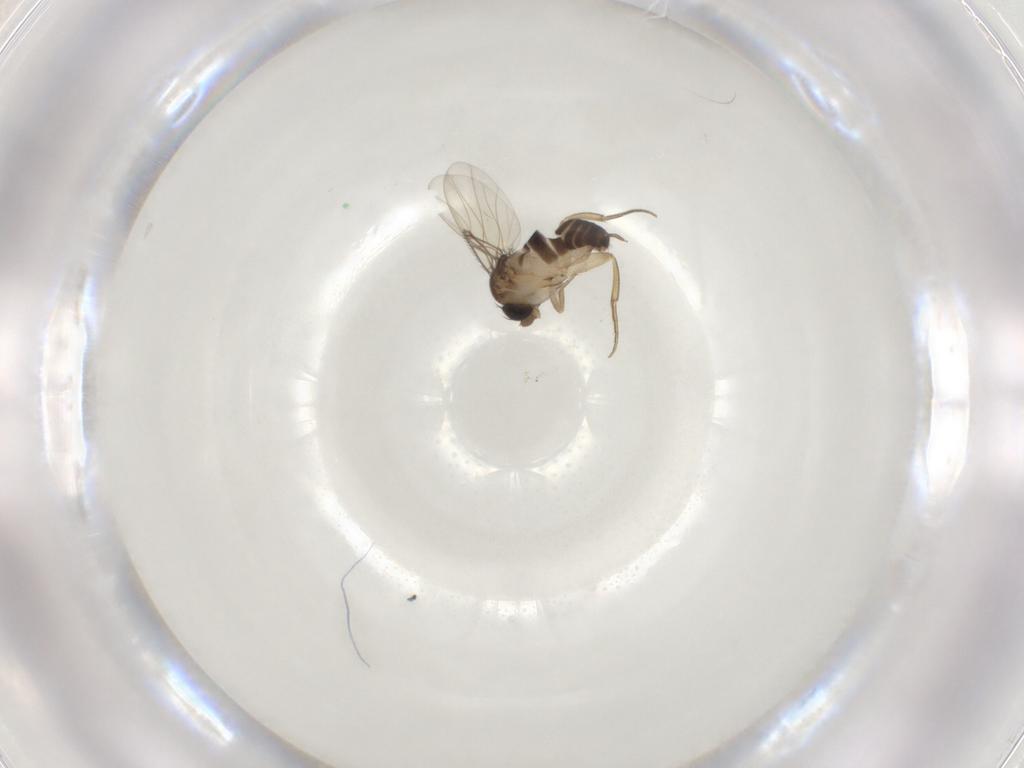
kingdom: Animalia
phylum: Arthropoda
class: Insecta
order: Diptera
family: Phoridae
